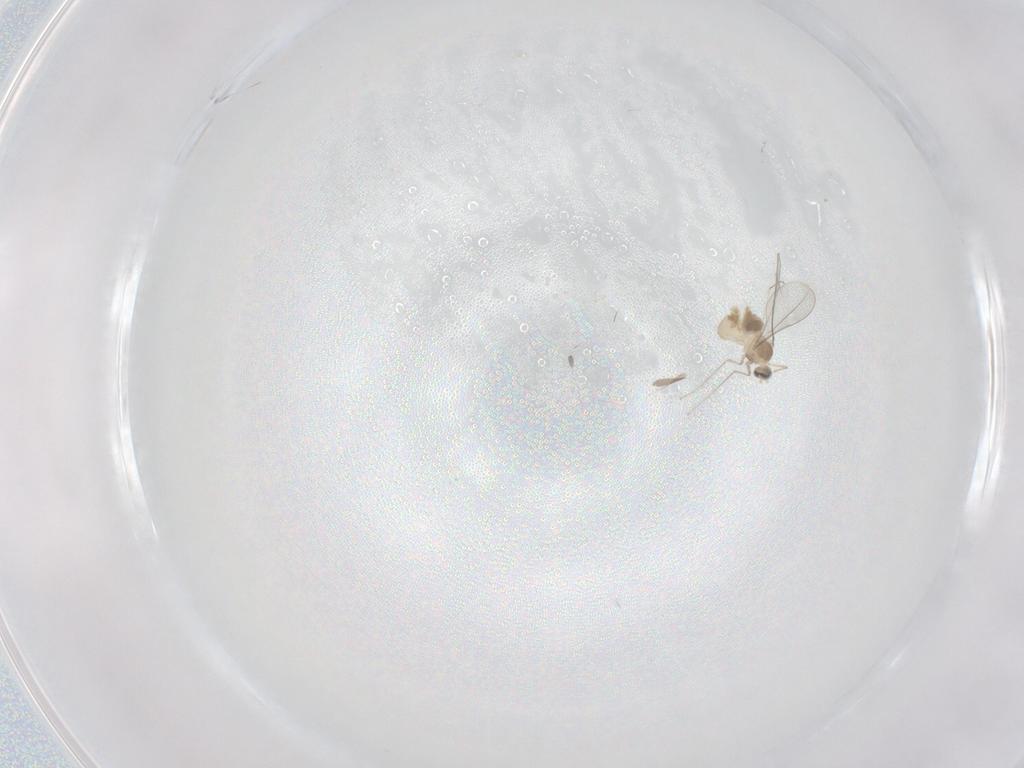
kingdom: Animalia
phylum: Arthropoda
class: Insecta
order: Diptera
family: Cecidomyiidae
